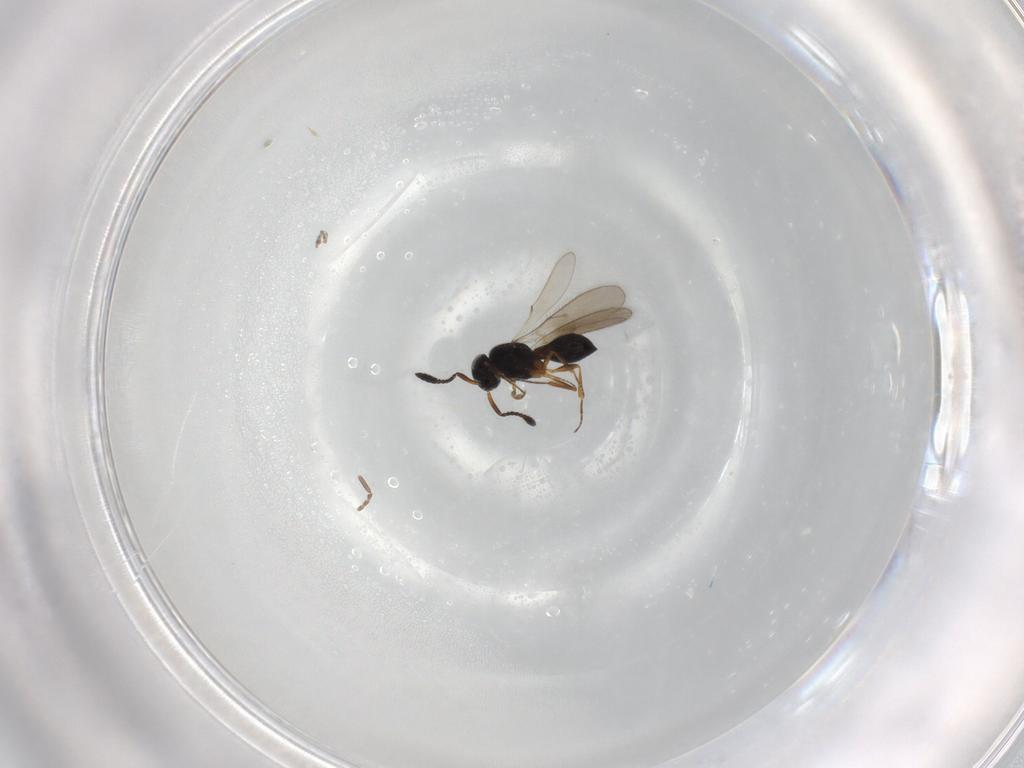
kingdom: Animalia
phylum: Arthropoda
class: Insecta
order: Hymenoptera
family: Scelionidae
